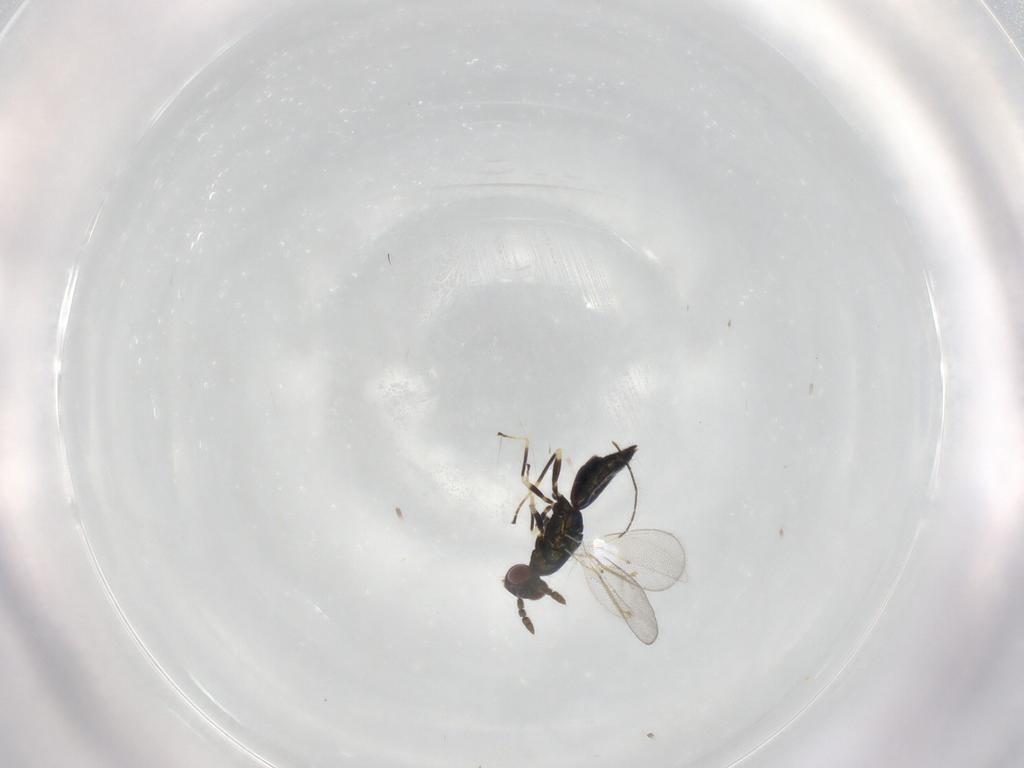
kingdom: Animalia
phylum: Arthropoda
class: Insecta
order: Hymenoptera
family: Eulophidae
